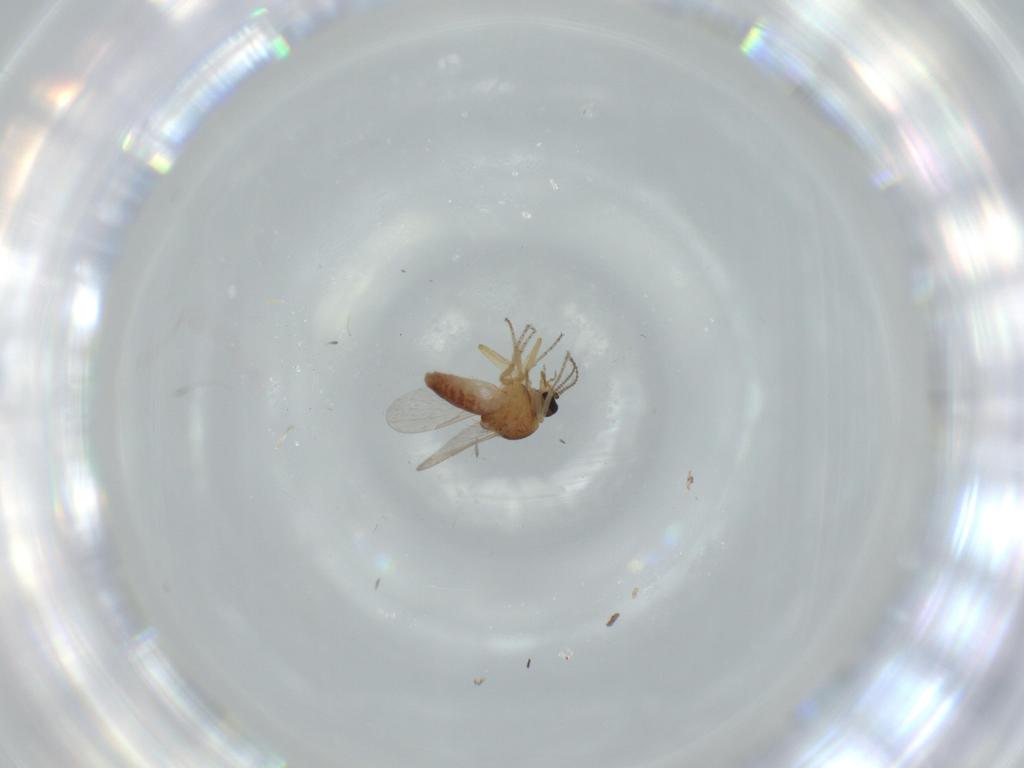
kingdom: Animalia
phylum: Arthropoda
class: Insecta
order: Diptera
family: Ceratopogonidae
